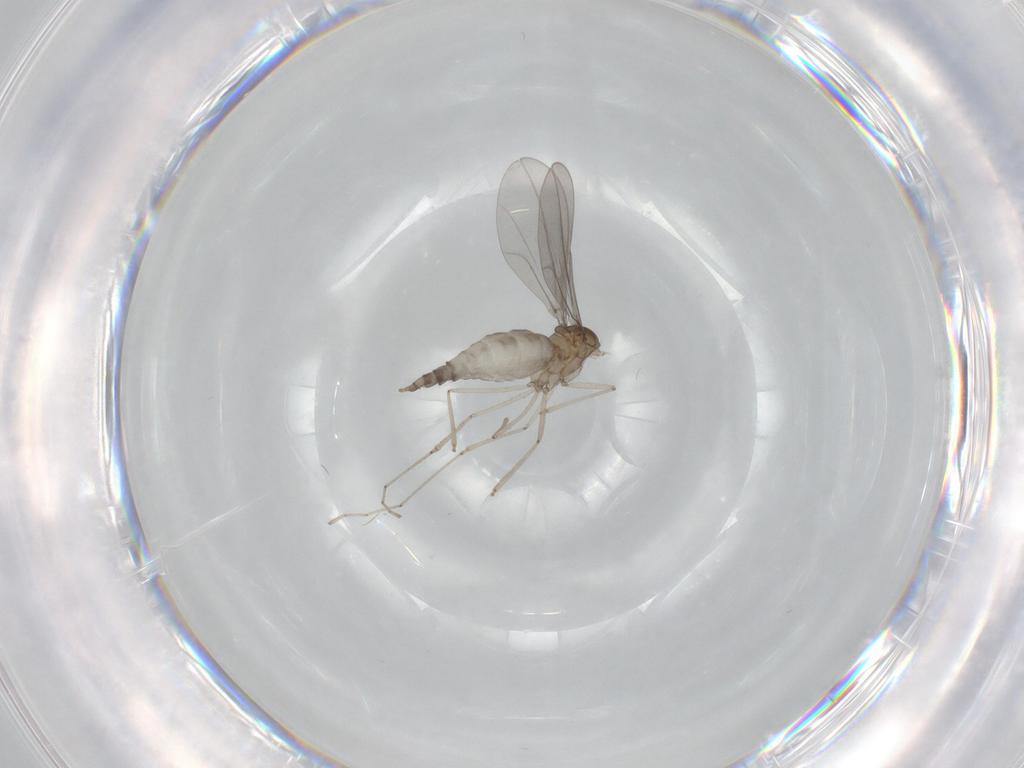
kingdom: Animalia
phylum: Arthropoda
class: Insecta
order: Diptera
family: Cecidomyiidae
